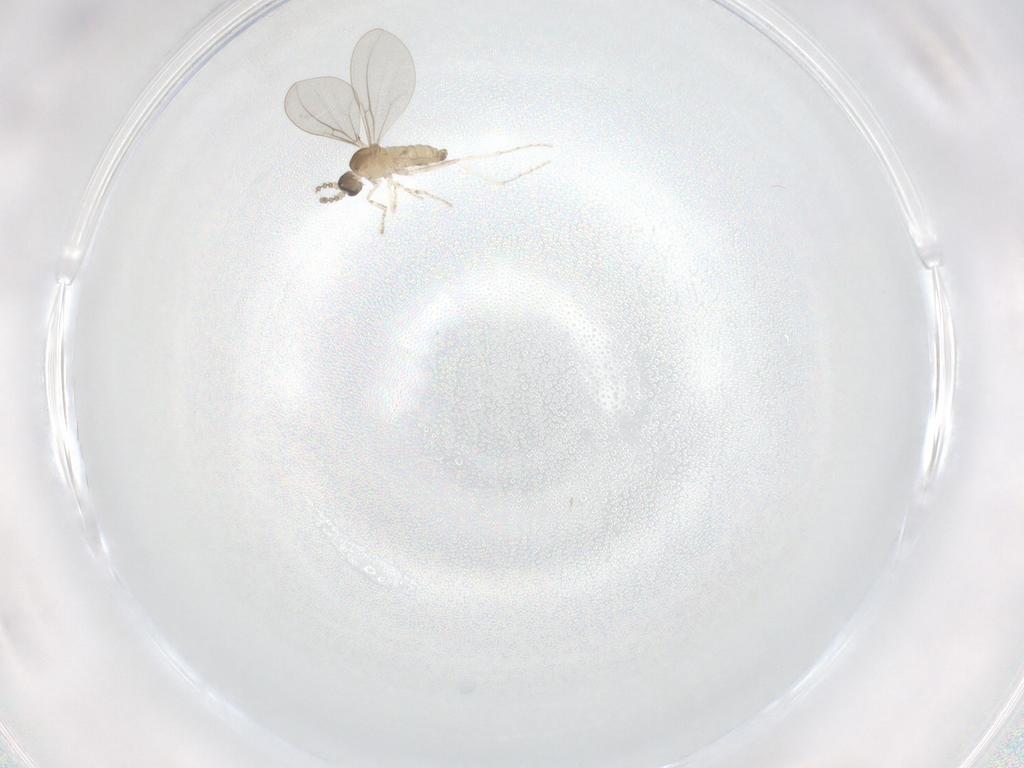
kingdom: Animalia
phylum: Arthropoda
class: Insecta
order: Diptera
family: Cecidomyiidae
